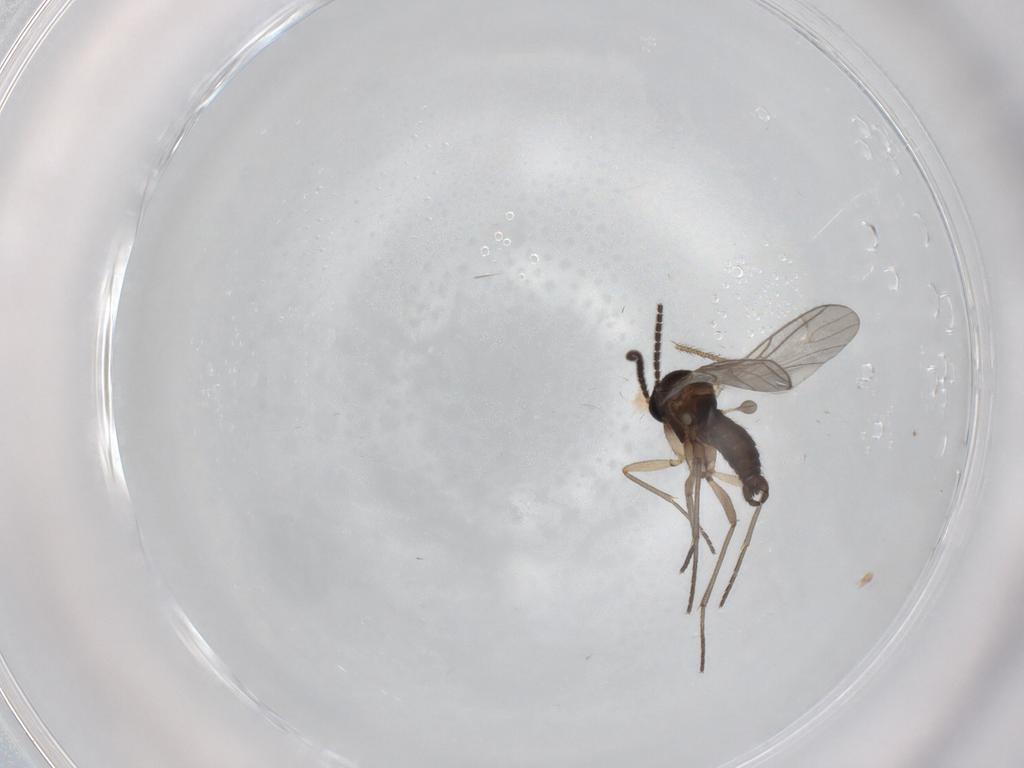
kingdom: Animalia
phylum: Arthropoda
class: Insecta
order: Diptera
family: Limoniidae
